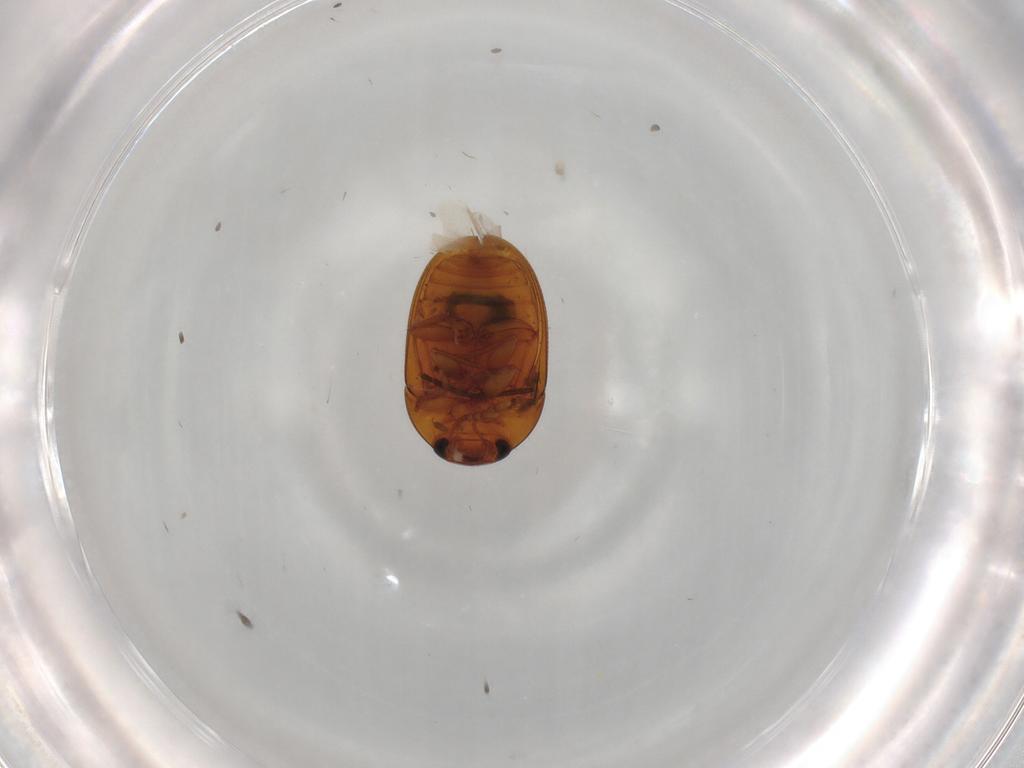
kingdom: Animalia
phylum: Arthropoda
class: Insecta
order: Coleoptera
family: Phalacridae
